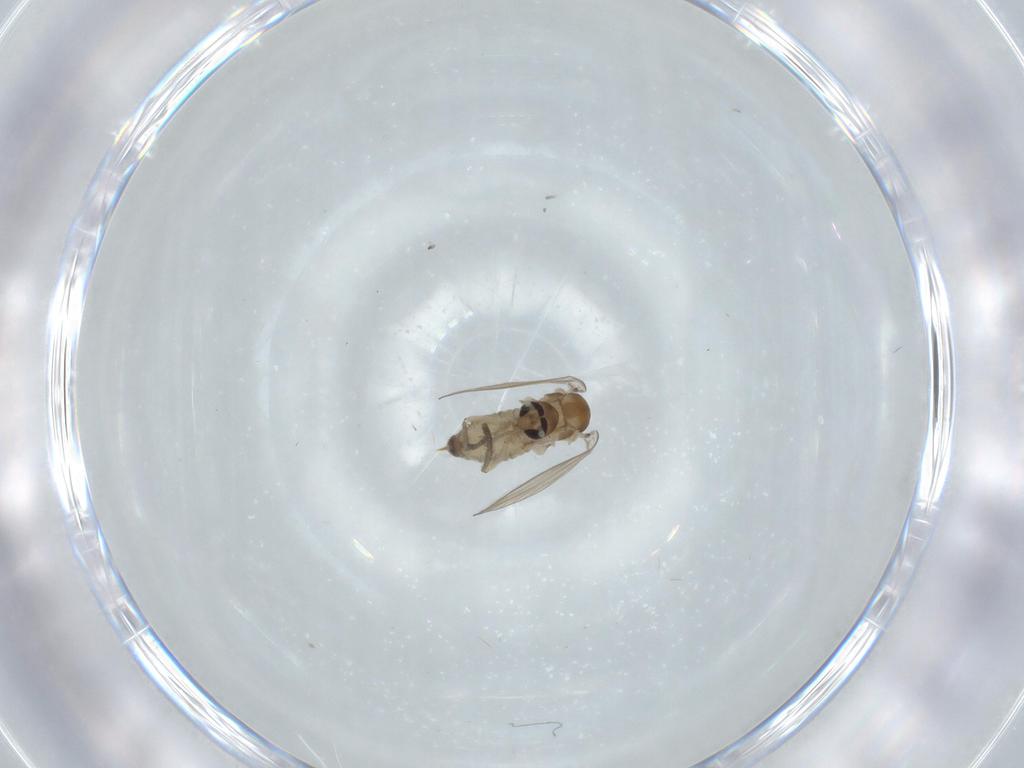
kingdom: Animalia
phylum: Arthropoda
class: Insecta
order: Diptera
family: Psychodidae
